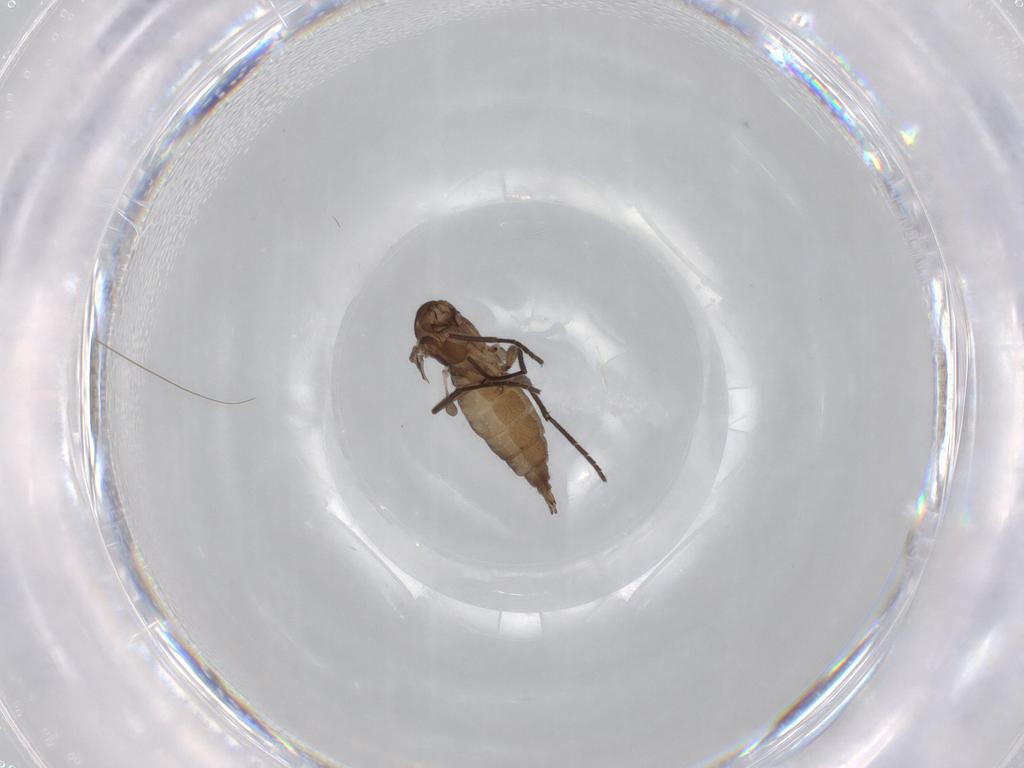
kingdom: Animalia
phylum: Arthropoda
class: Insecta
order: Diptera
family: Sciaridae
